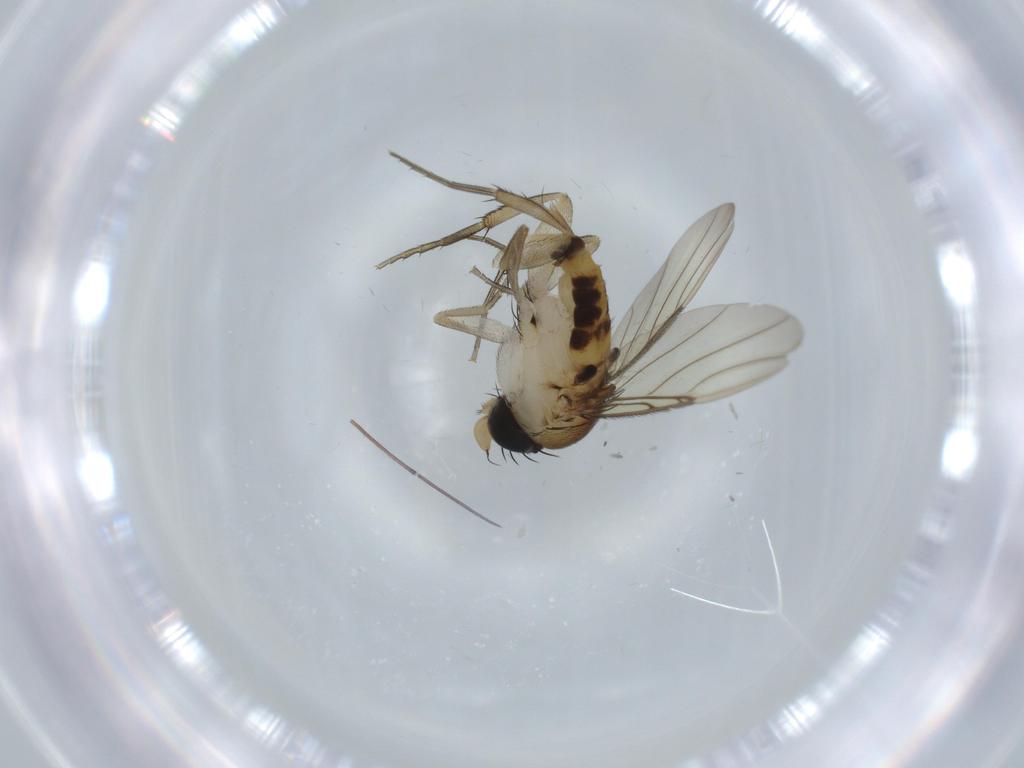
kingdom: Animalia
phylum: Arthropoda
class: Insecta
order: Diptera
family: Phoridae
